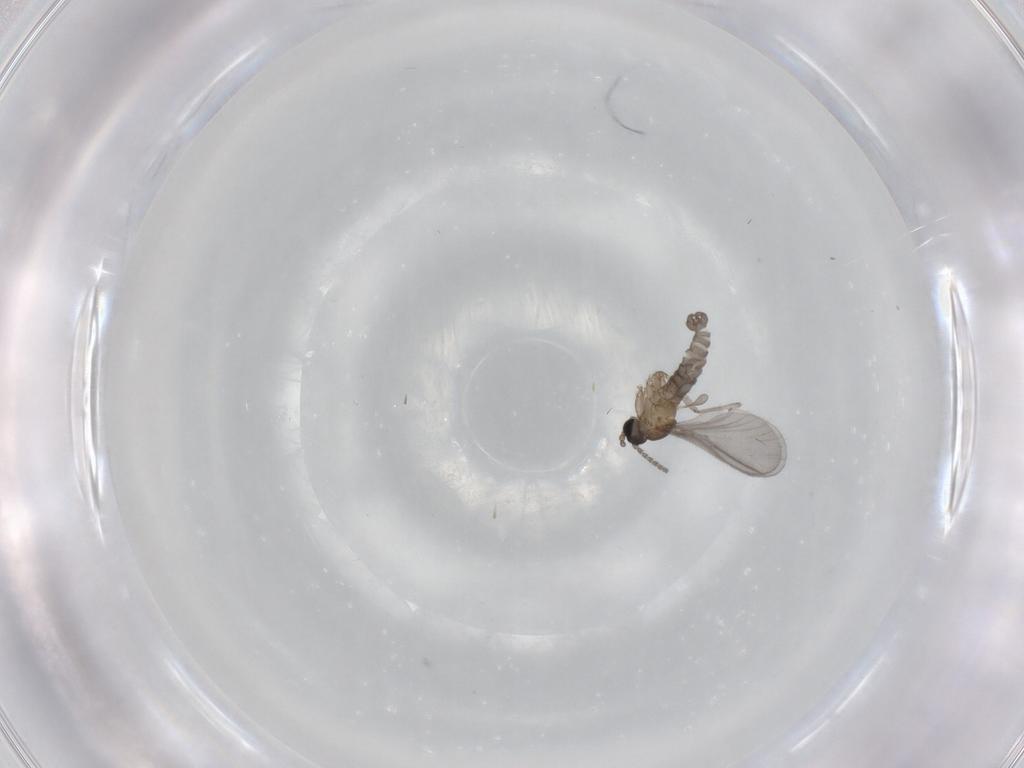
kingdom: Animalia
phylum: Arthropoda
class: Insecta
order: Diptera
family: Sciaridae
